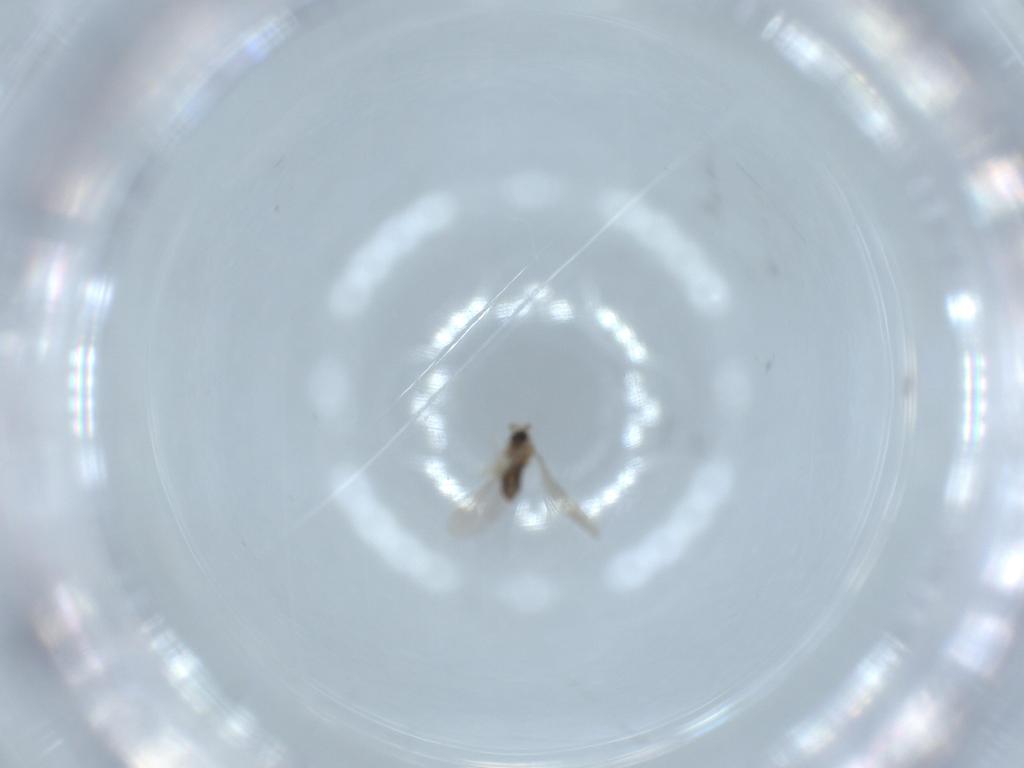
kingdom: Animalia
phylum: Arthropoda
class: Insecta
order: Diptera
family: Cecidomyiidae
